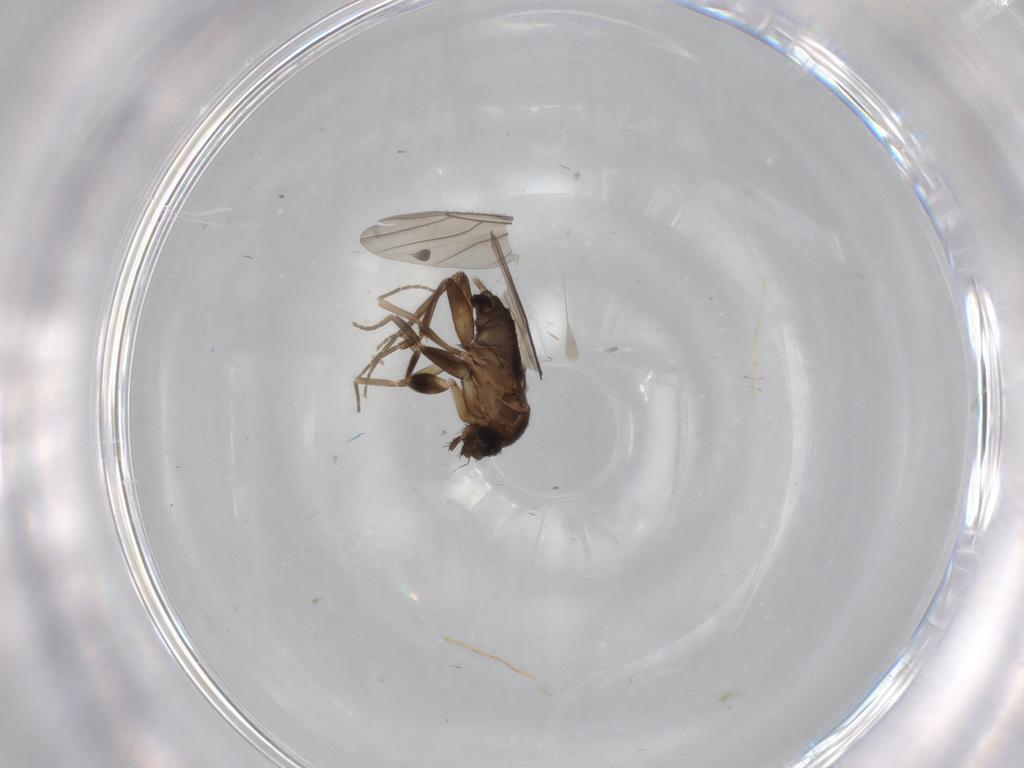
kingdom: Animalia
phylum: Arthropoda
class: Insecta
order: Diptera
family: Phoridae
